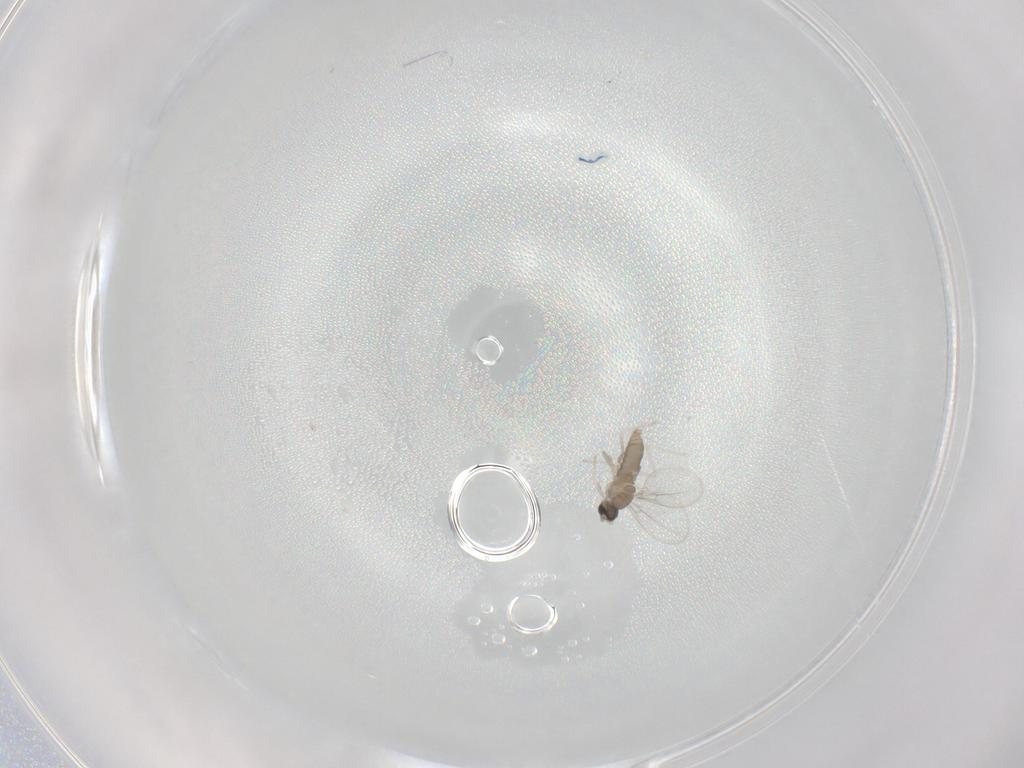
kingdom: Animalia
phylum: Arthropoda
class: Insecta
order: Diptera
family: Cecidomyiidae
